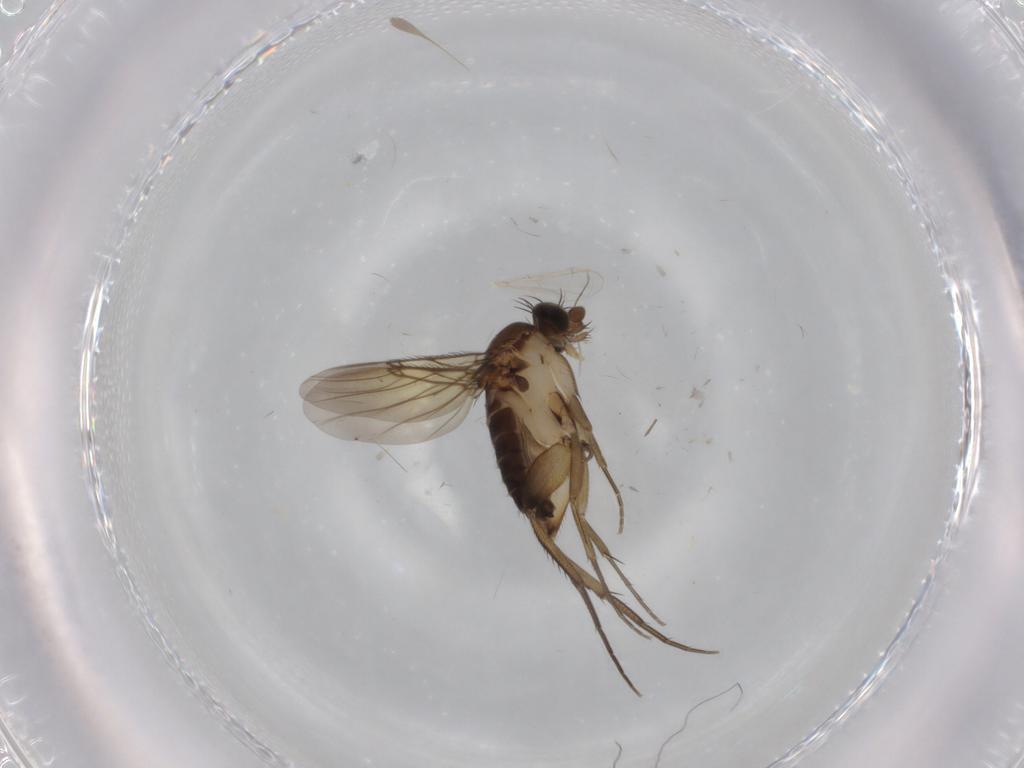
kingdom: Animalia
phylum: Arthropoda
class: Insecta
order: Diptera
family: Phoridae
